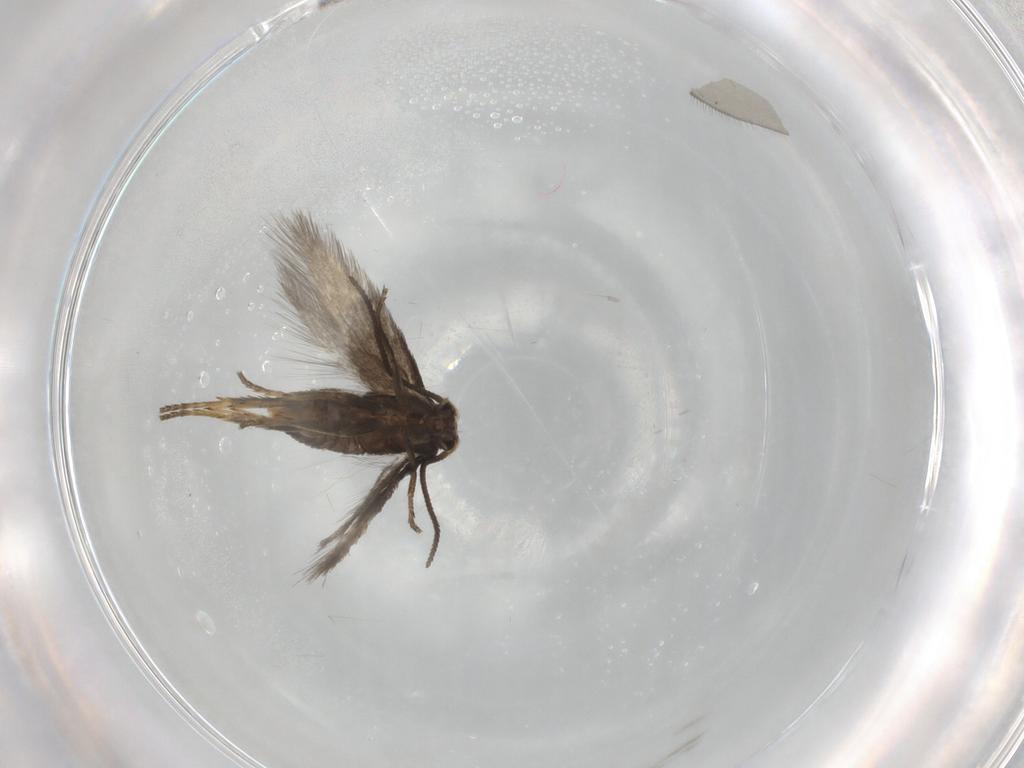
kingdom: Animalia
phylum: Arthropoda
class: Insecta
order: Lepidoptera
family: Nepticulidae
